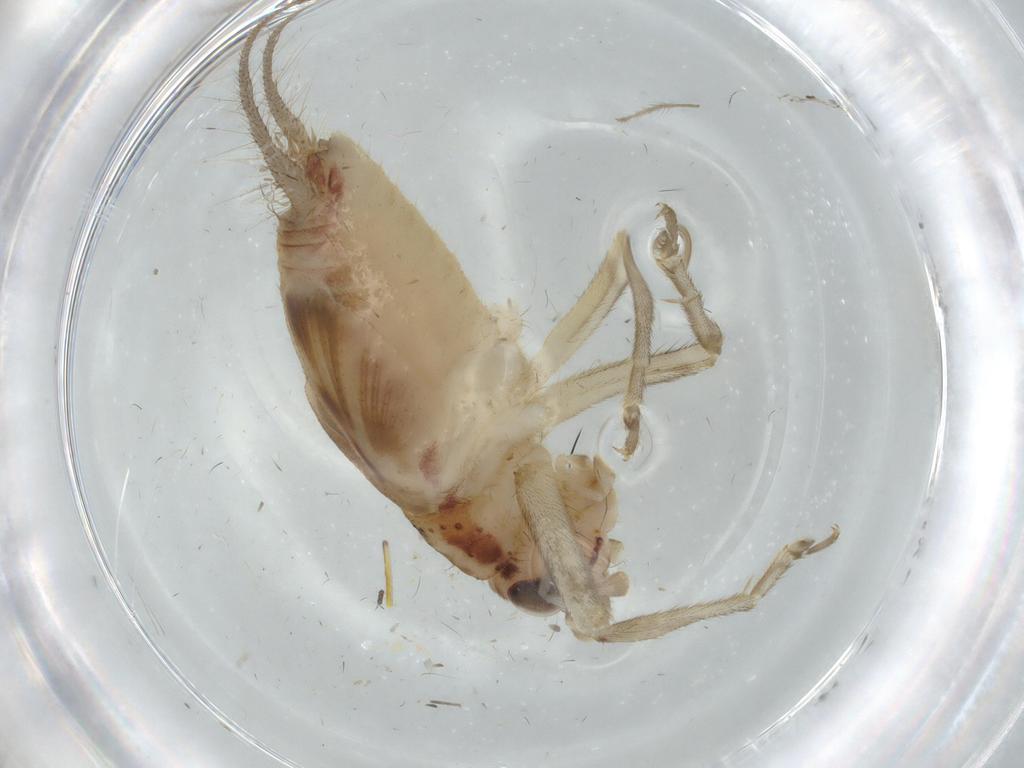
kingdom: Animalia
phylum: Arthropoda
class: Insecta
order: Orthoptera
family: Trigonidiidae
